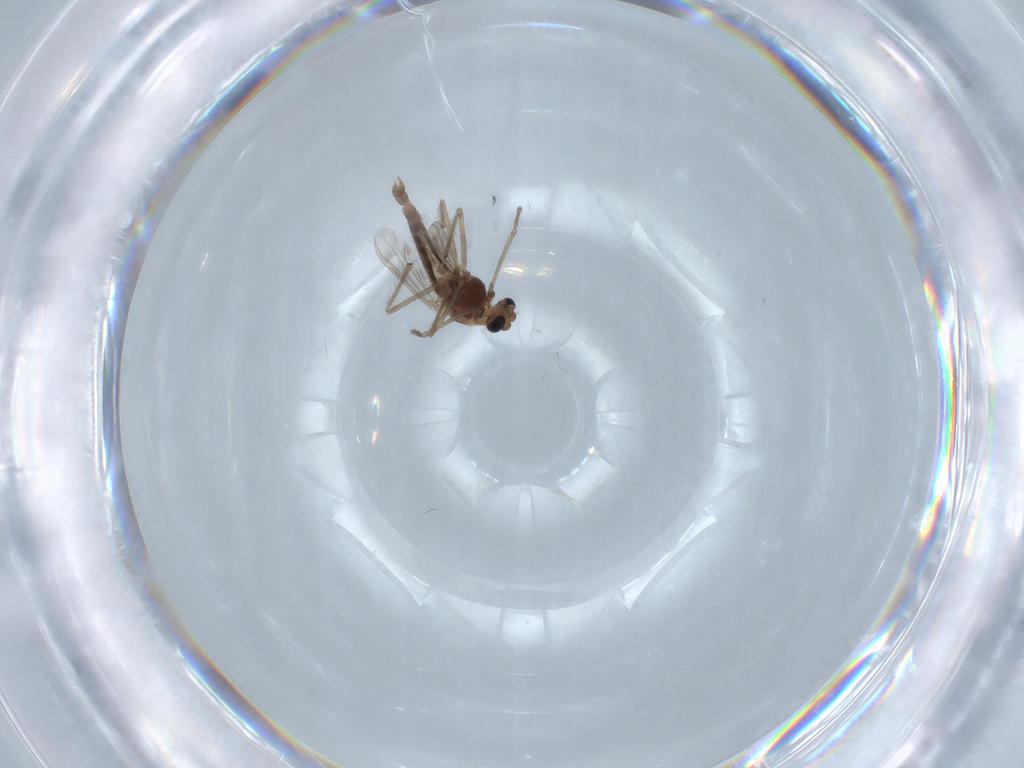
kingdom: Animalia
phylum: Arthropoda
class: Insecta
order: Diptera
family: Chironomidae
